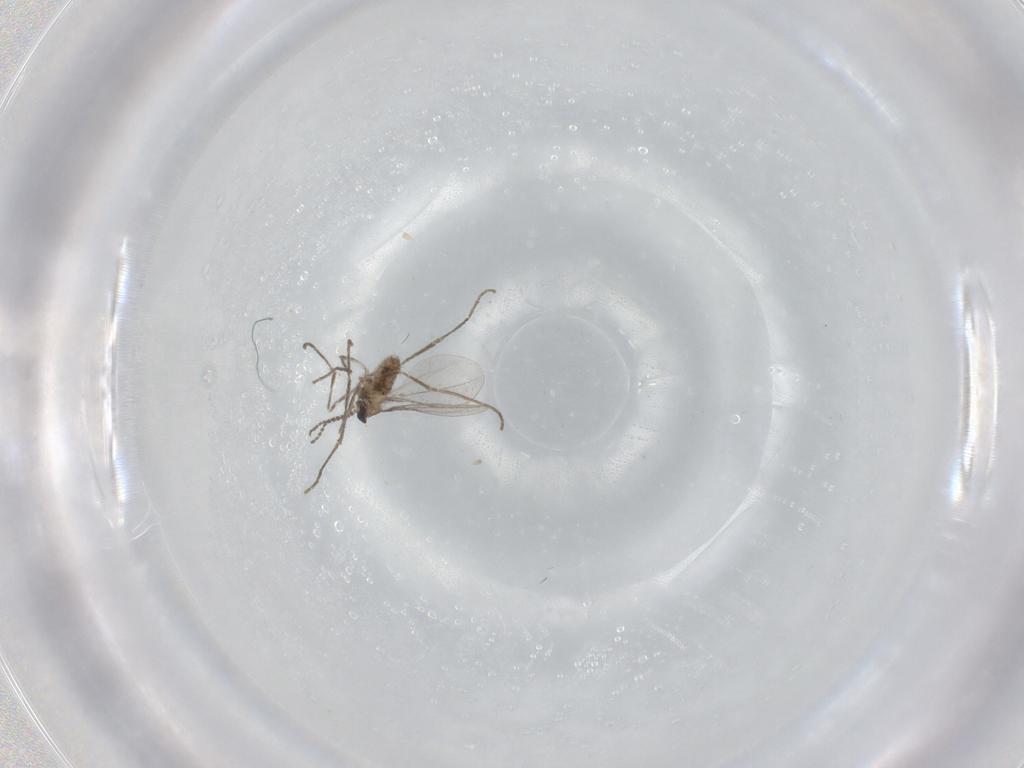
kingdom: Animalia
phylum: Arthropoda
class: Insecta
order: Diptera
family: Cecidomyiidae
